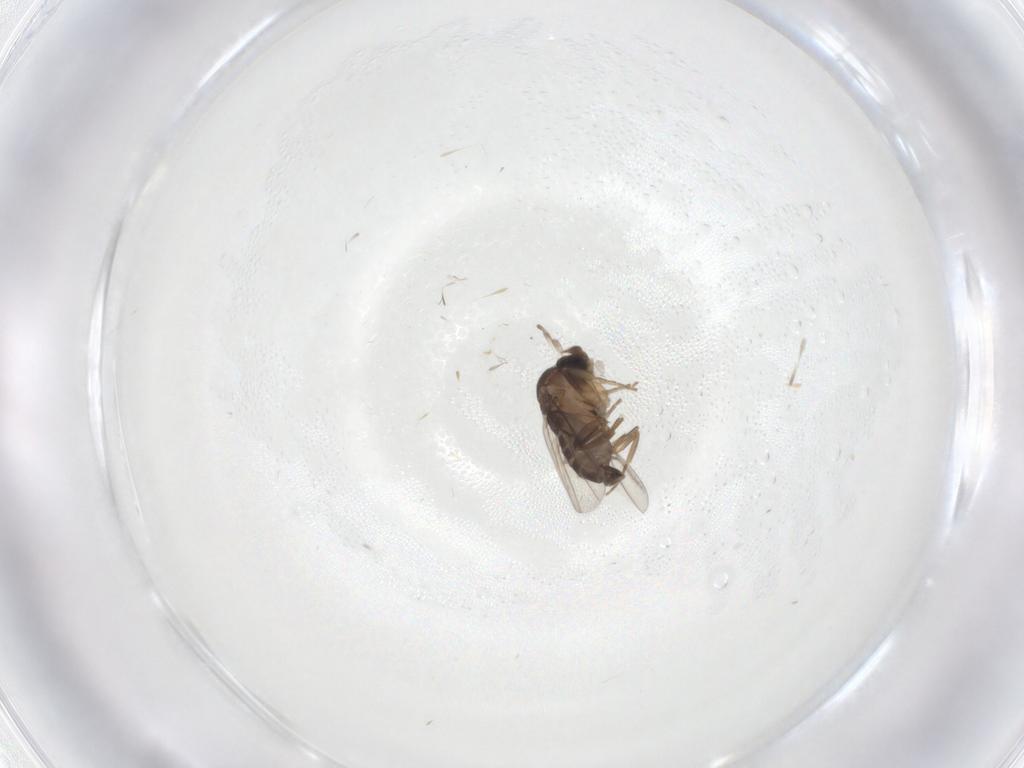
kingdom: Animalia
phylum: Arthropoda
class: Insecta
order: Diptera
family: Phoridae
